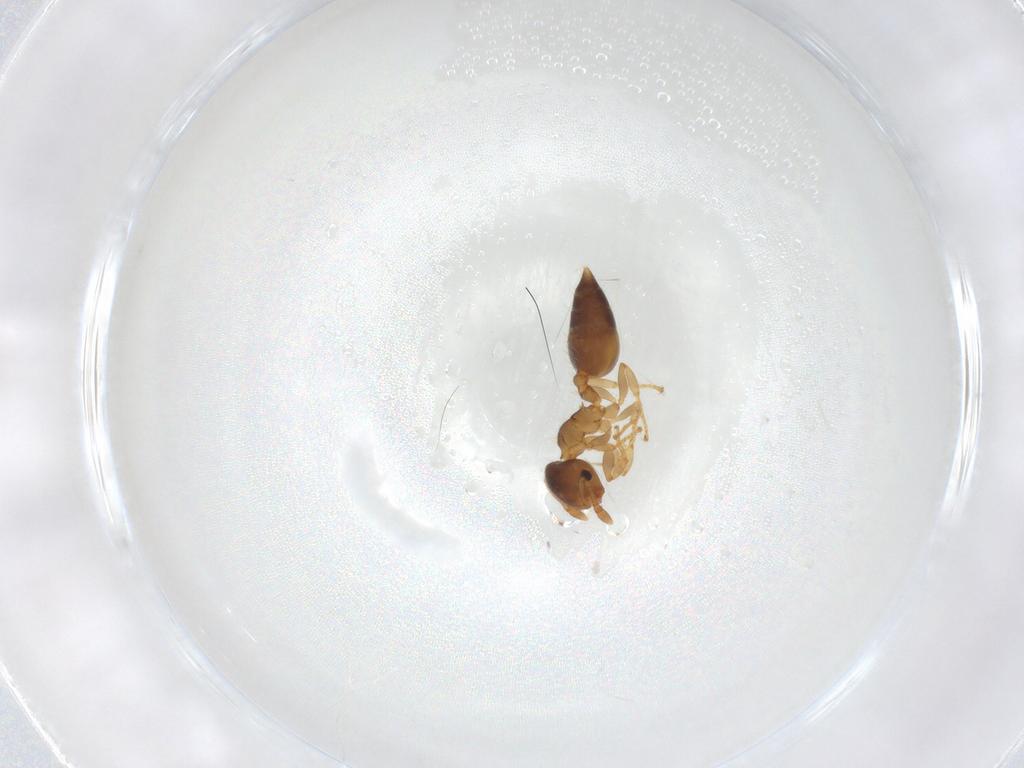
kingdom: Animalia
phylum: Arthropoda
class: Insecta
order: Hymenoptera
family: Formicidae
